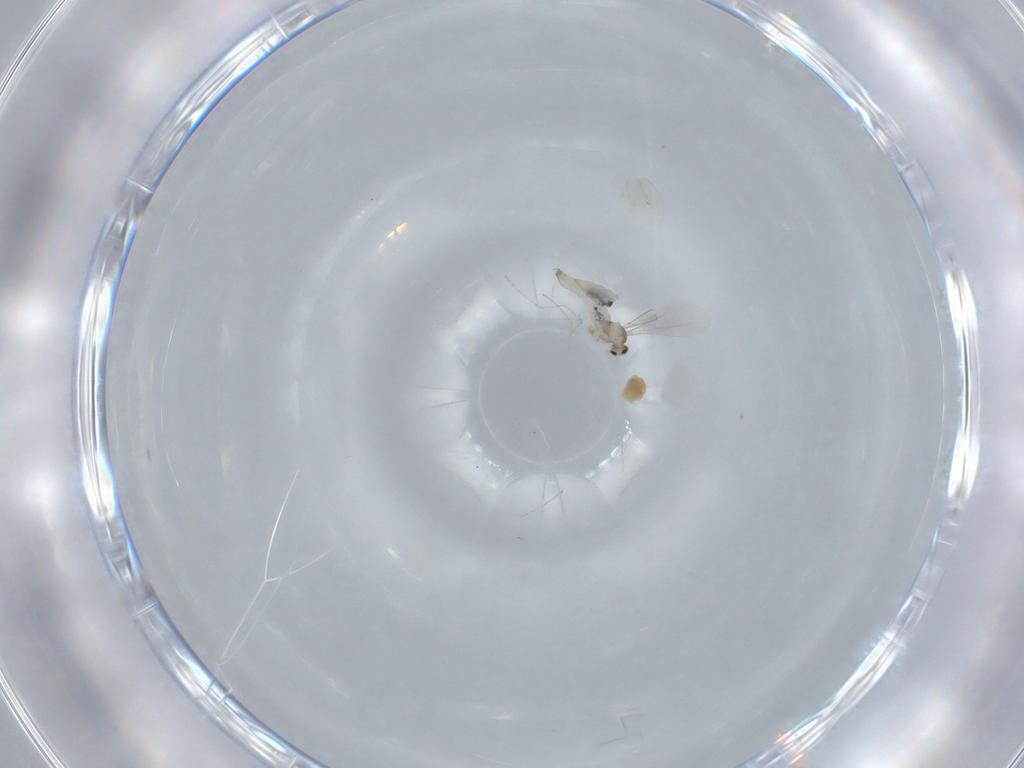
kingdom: Animalia
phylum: Arthropoda
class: Insecta
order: Diptera
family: Cecidomyiidae
